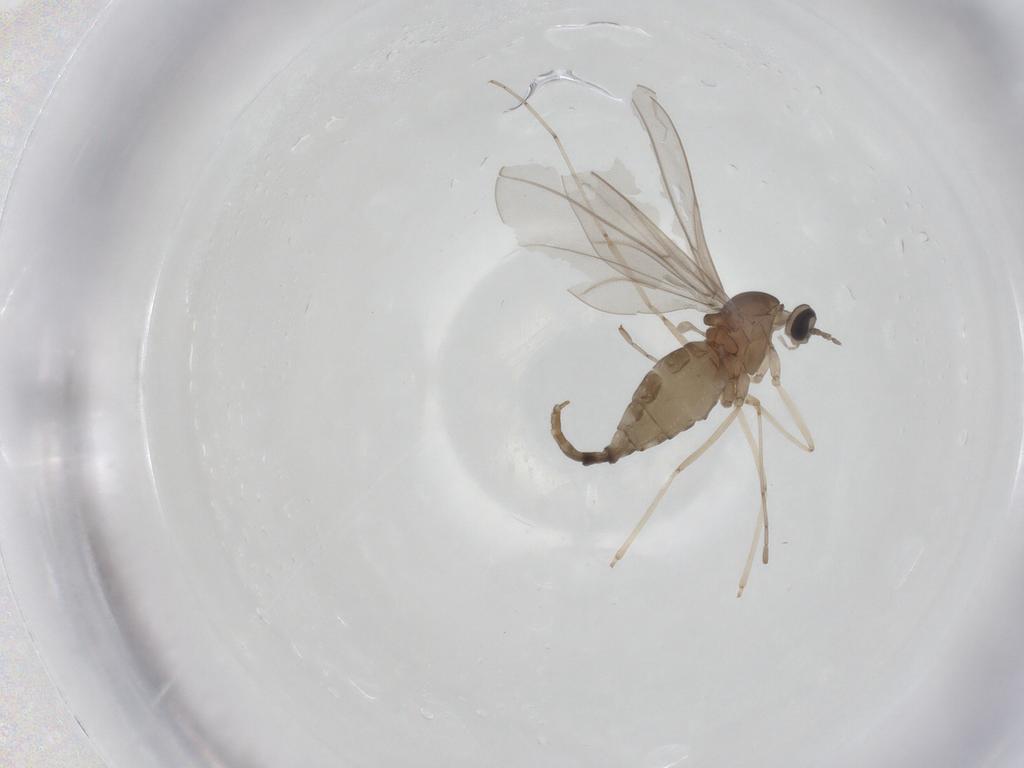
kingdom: Animalia
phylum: Arthropoda
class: Insecta
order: Diptera
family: Cecidomyiidae
